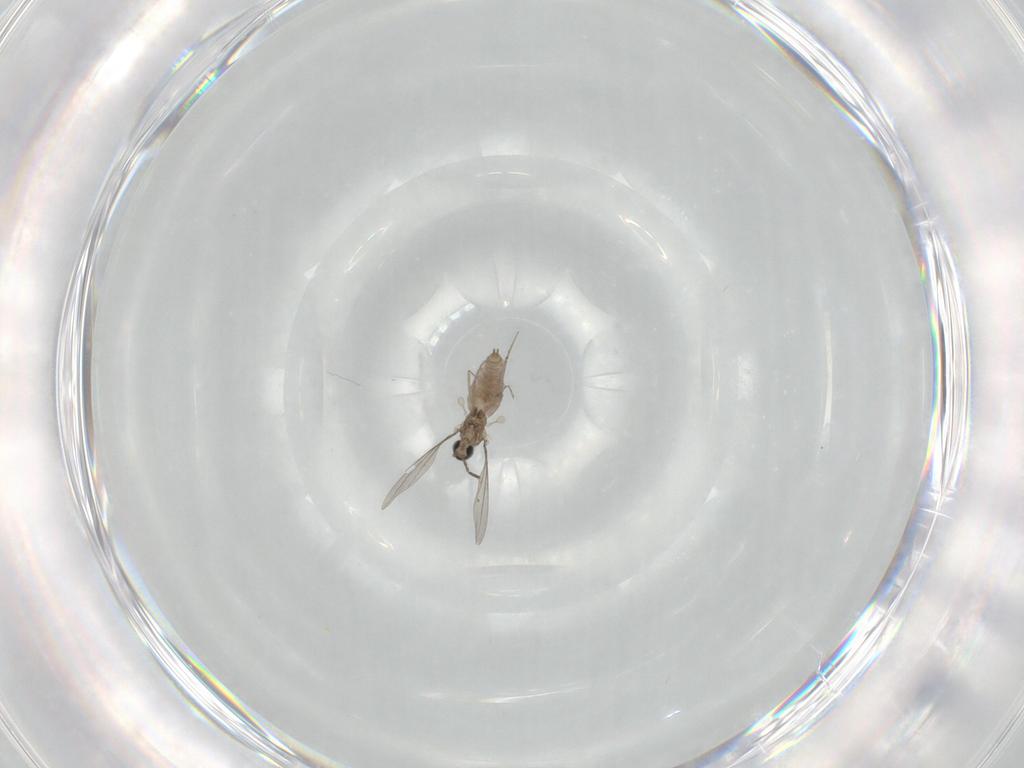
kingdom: Animalia
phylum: Arthropoda
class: Insecta
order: Diptera
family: Cecidomyiidae
